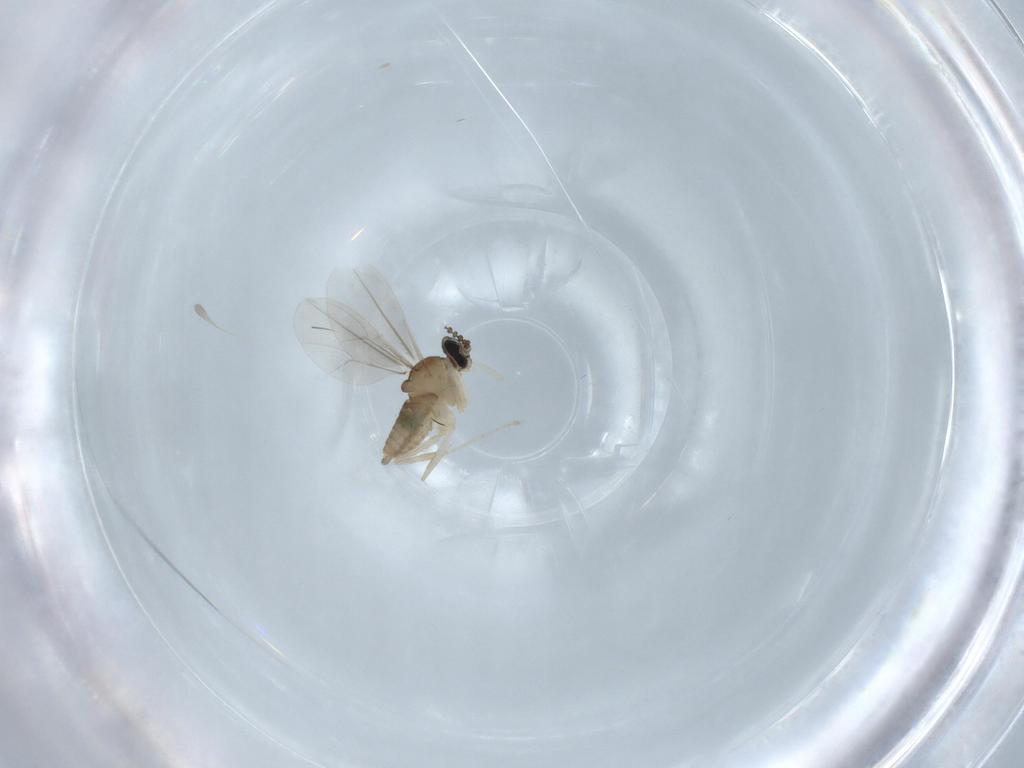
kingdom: Animalia
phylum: Arthropoda
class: Insecta
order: Diptera
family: Cecidomyiidae
